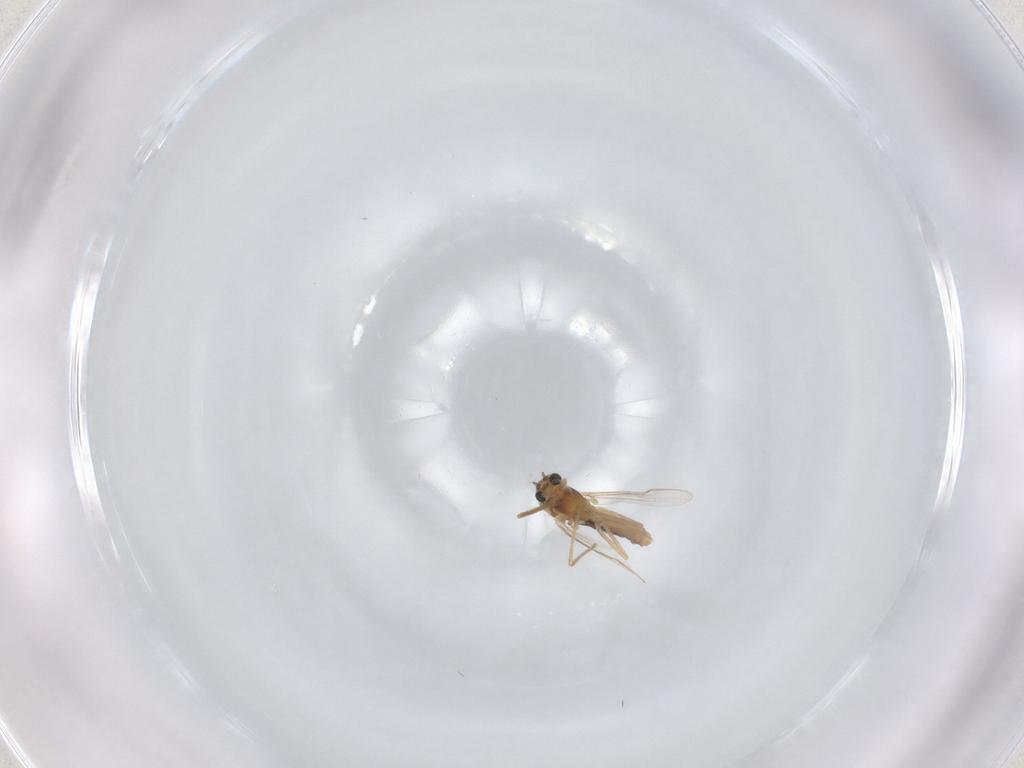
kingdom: Animalia
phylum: Arthropoda
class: Insecta
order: Diptera
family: Chironomidae
